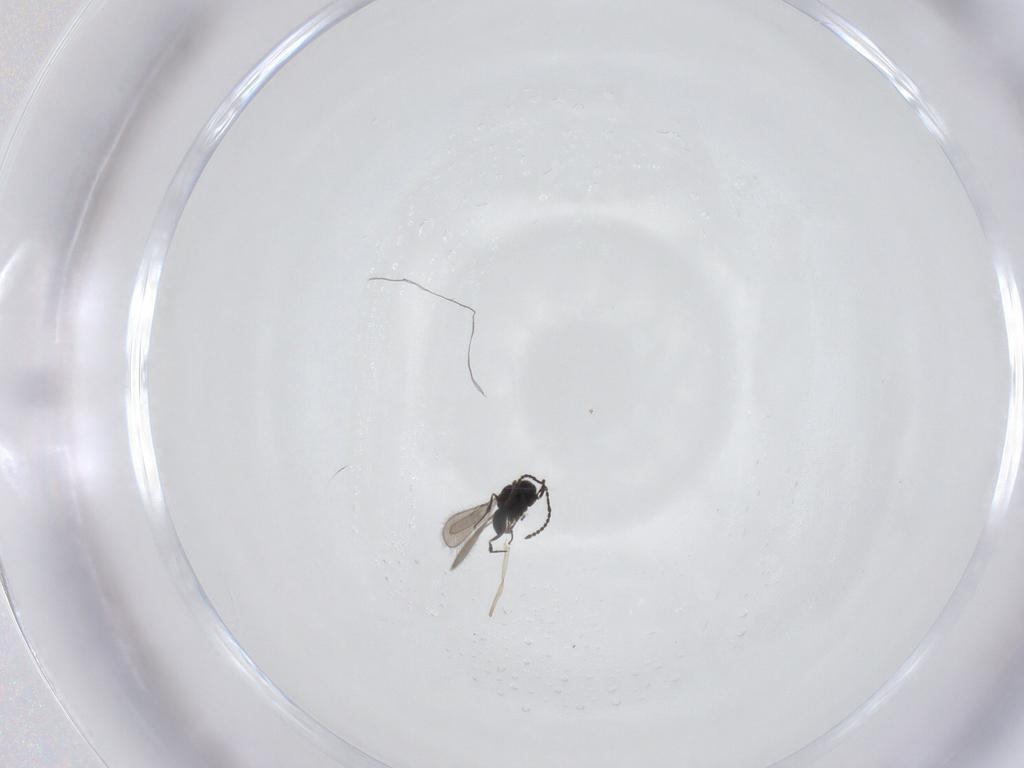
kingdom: Animalia
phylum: Arthropoda
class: Insecta
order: Hymenoptera
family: Scelionidae
